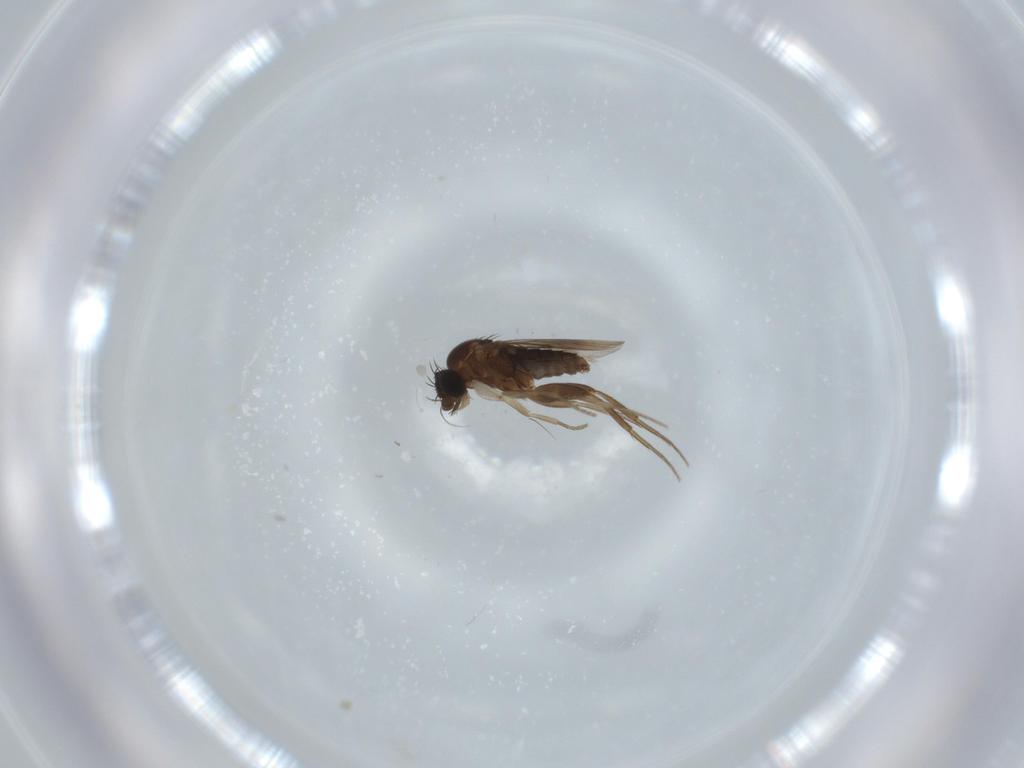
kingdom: Animalia
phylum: Arthropoda
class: Insecta
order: Diptera
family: Phoridae
